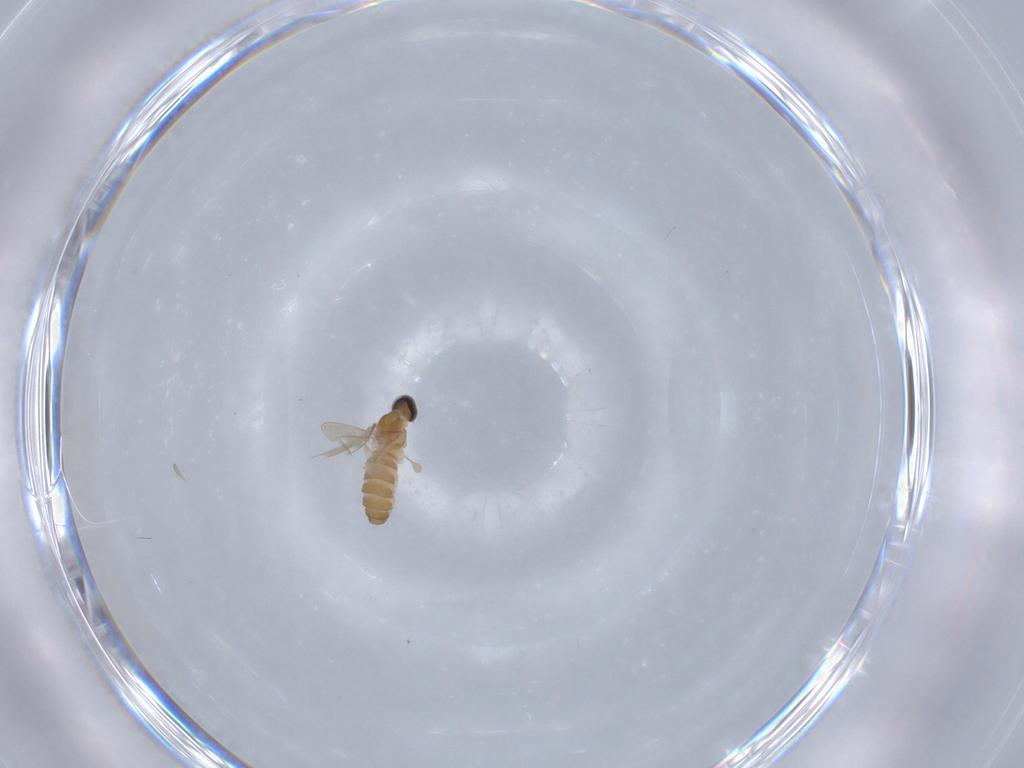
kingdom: Animalia
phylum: Arthropoda
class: Insecta
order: Diptera
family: Cecidomyiidae
